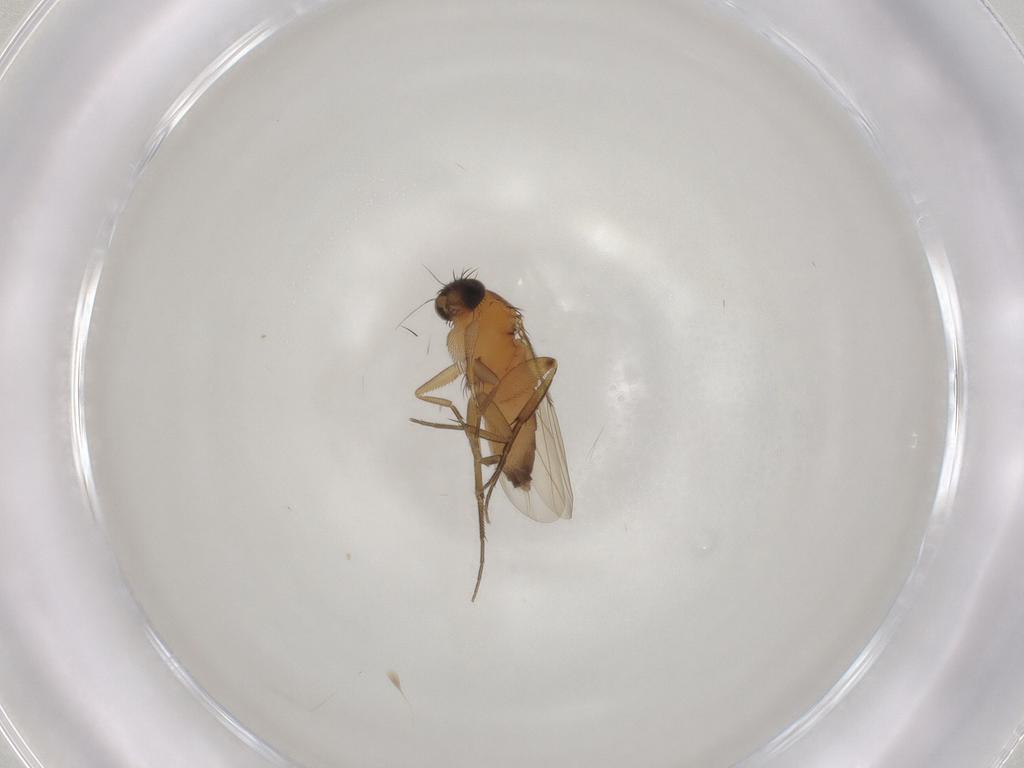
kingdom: Animalia
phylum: Arthropoda
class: Insecta
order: Diptera
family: Phoridae
